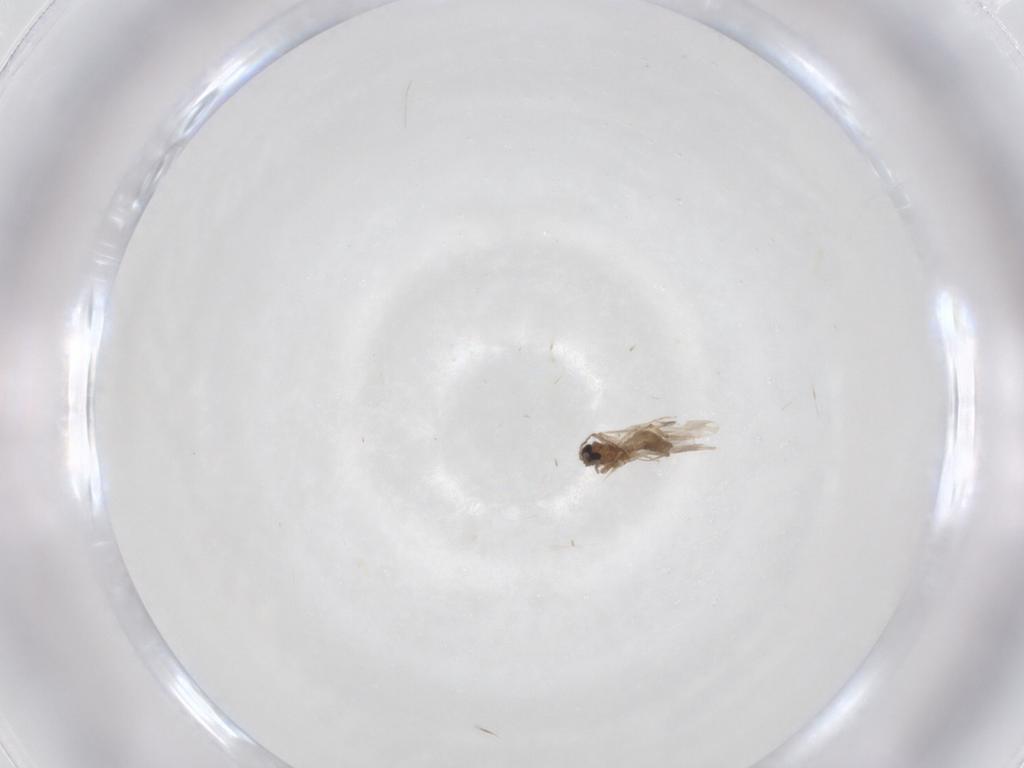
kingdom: Animalia
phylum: Arthropoda
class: Insecta
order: Diptera
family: Ceratopogonidae
